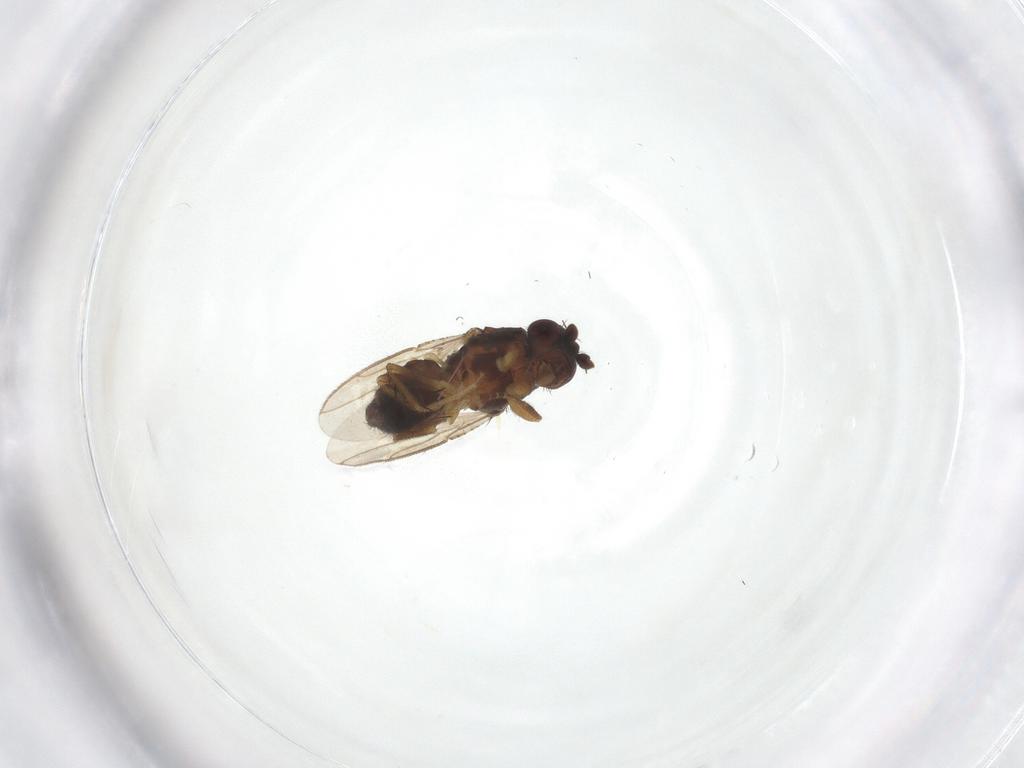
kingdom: Animalia
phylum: Arthropoda
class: Insecta
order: Diptera
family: Sphaeroceridae
